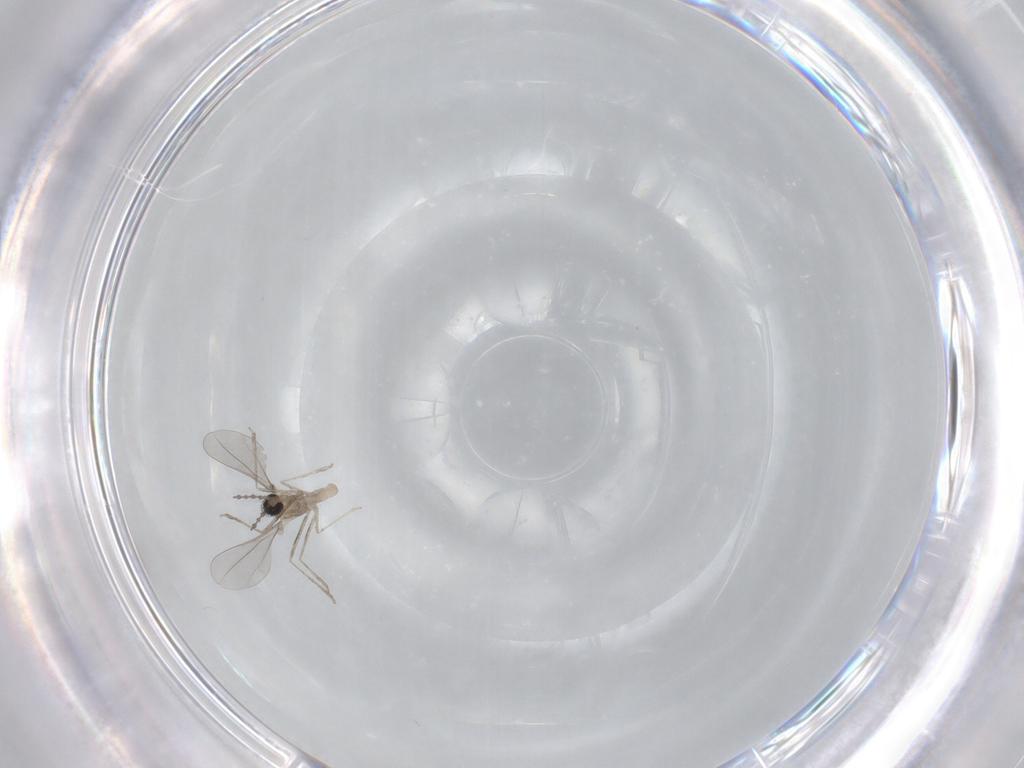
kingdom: Animalia
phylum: Arthropoda
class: Insecta
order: Diptera
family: Cecidomyiidae
